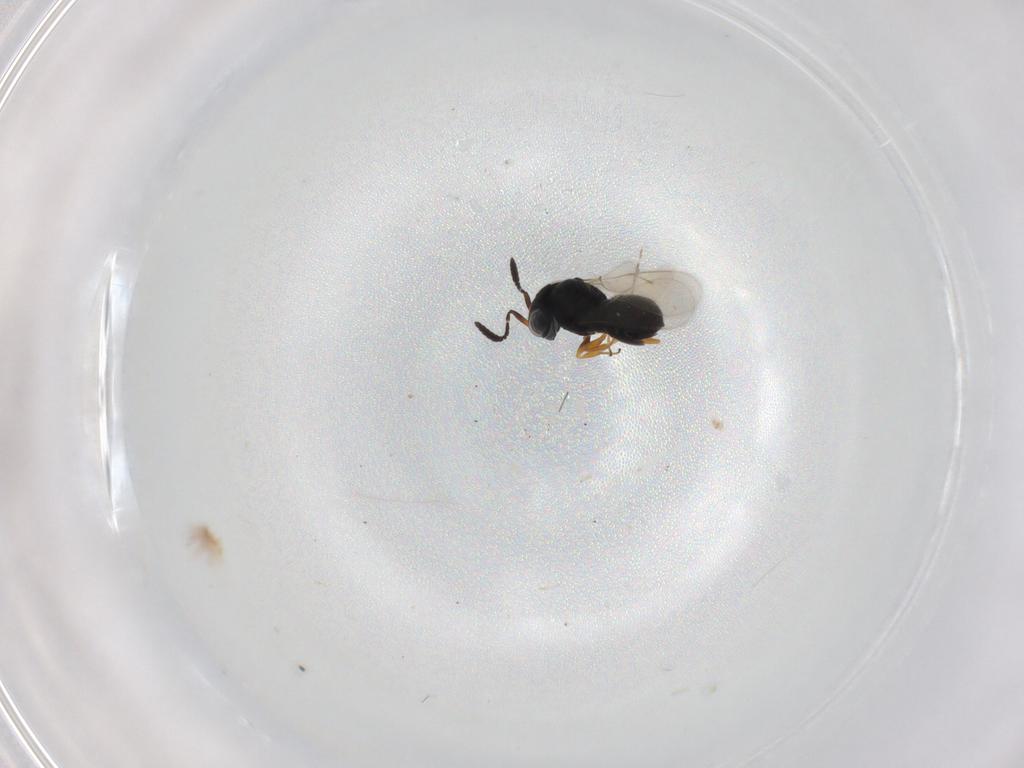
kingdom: Animalia
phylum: Arthropoda
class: Insecta
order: Hymenoptera
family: Scelionidae
